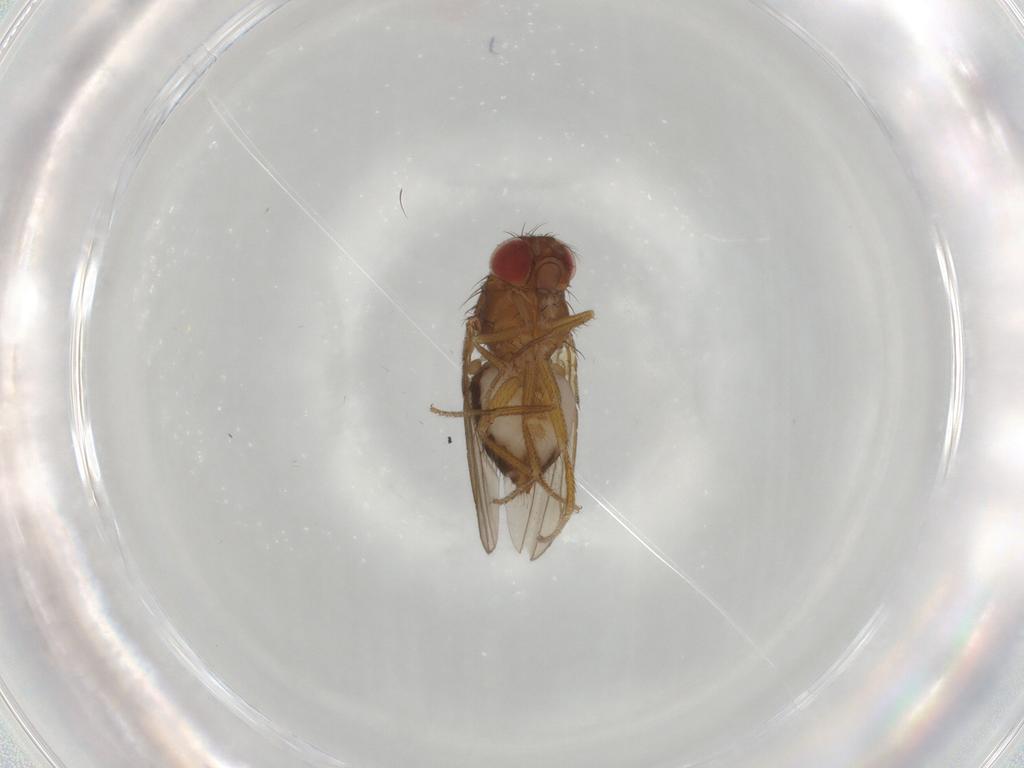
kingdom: Animalia
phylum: Arthropoda
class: Insecta
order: Diptera
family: Drosophilidae
